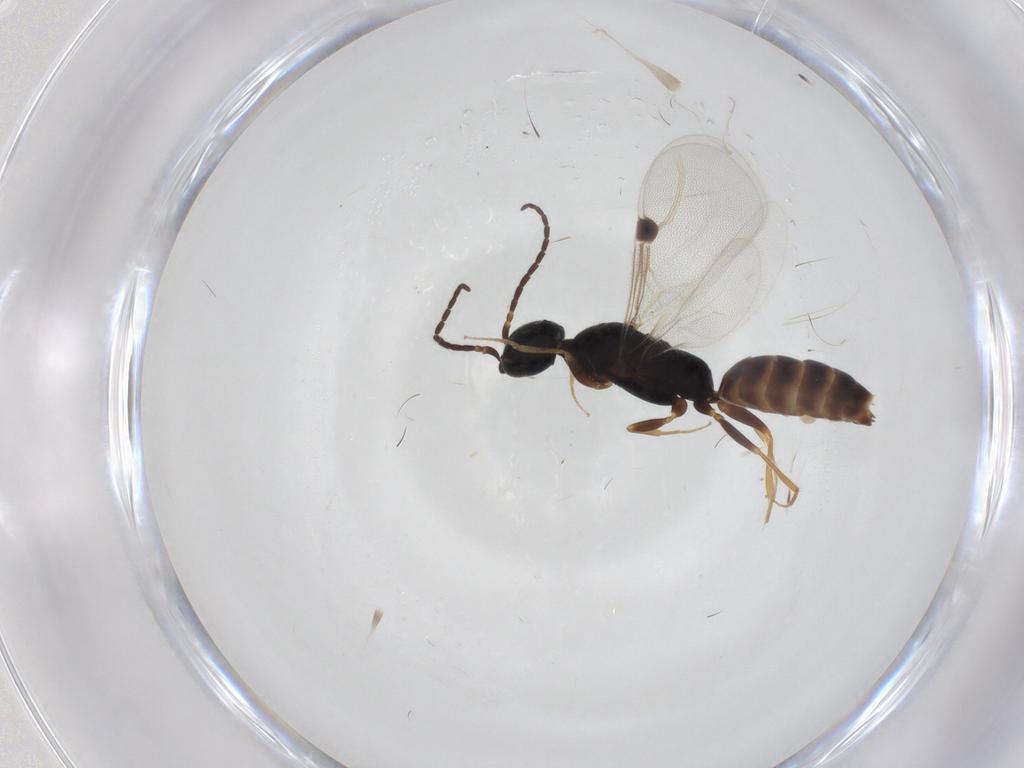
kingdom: Animalia
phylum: Arthropoda
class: Insecta
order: Hymenoptera
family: Bethylidae
